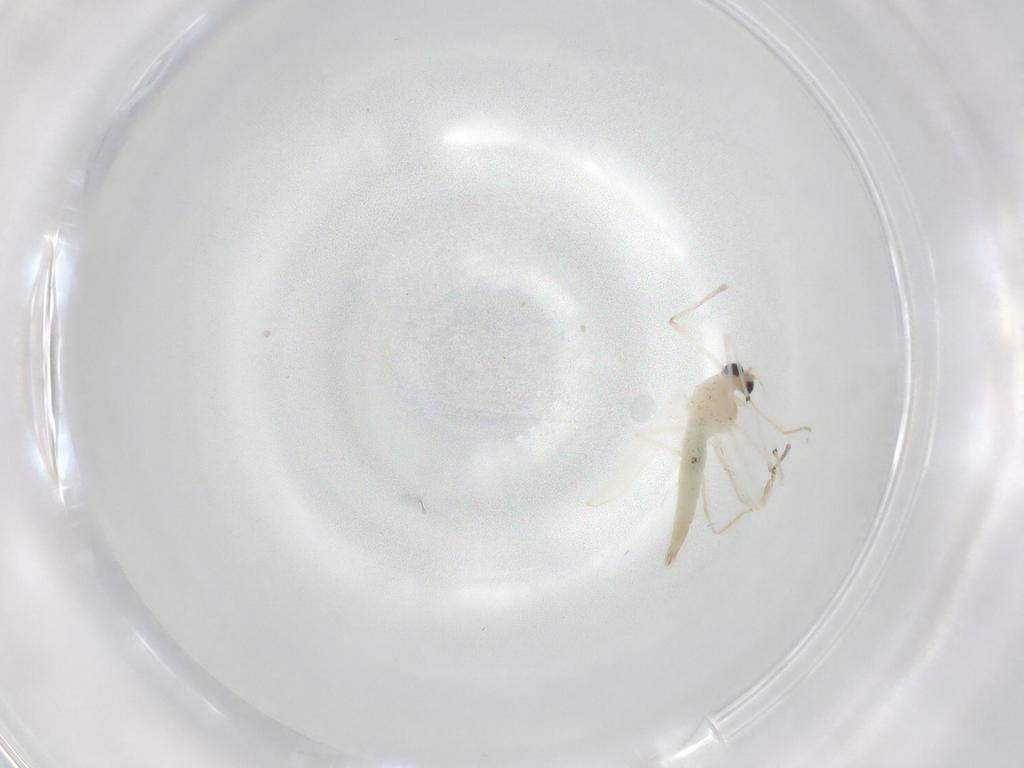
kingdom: Animalia
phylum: Arthropoda
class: Insecta
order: Diptera
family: Chironomidae
